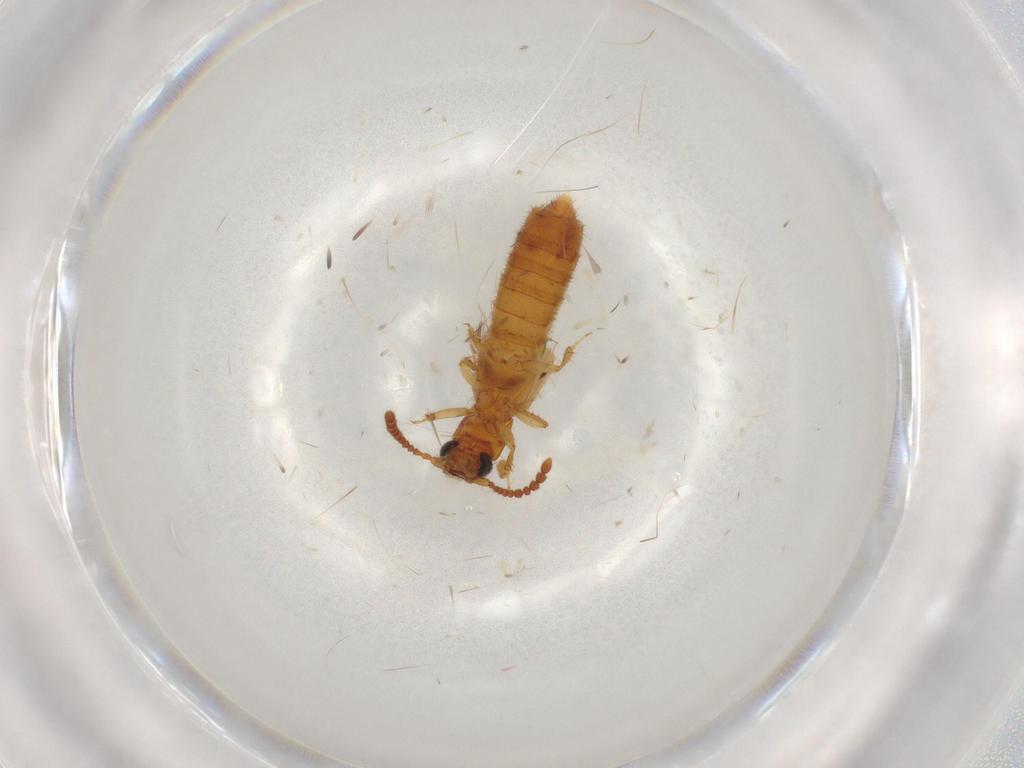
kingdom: Animalia
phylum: Arthropoda
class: Insecta
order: Coleoptera
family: Staphylinidae
